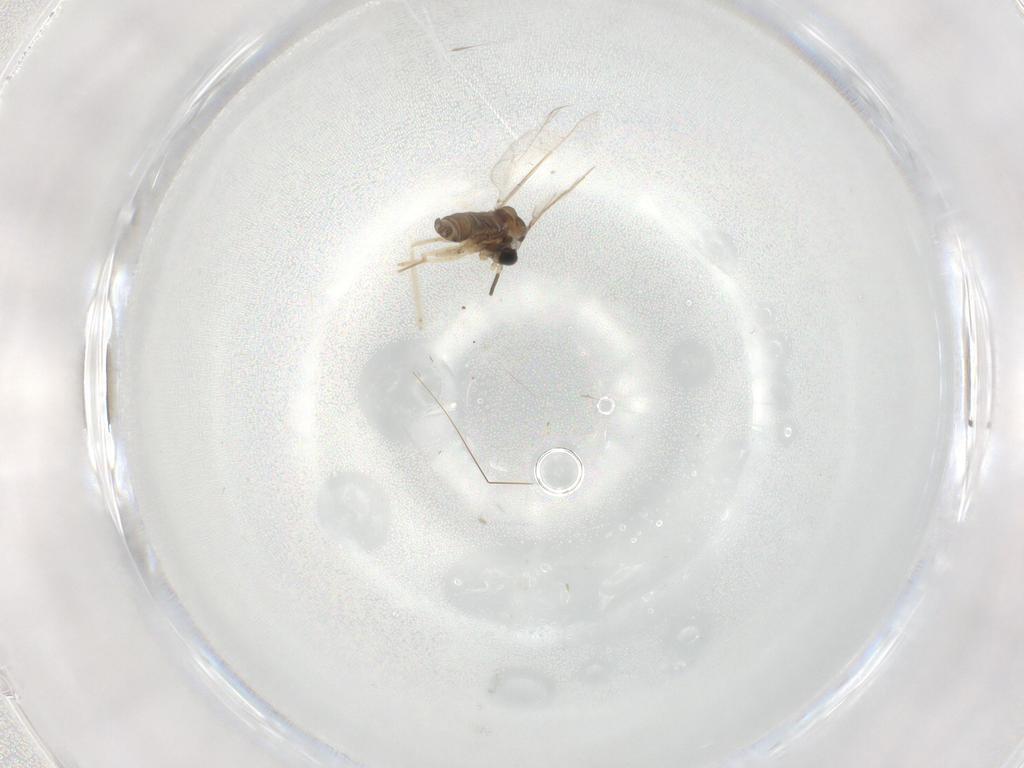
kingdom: Animalia
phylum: Arthropoda
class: Insecta
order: Diptera
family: Cecidomyiidae
